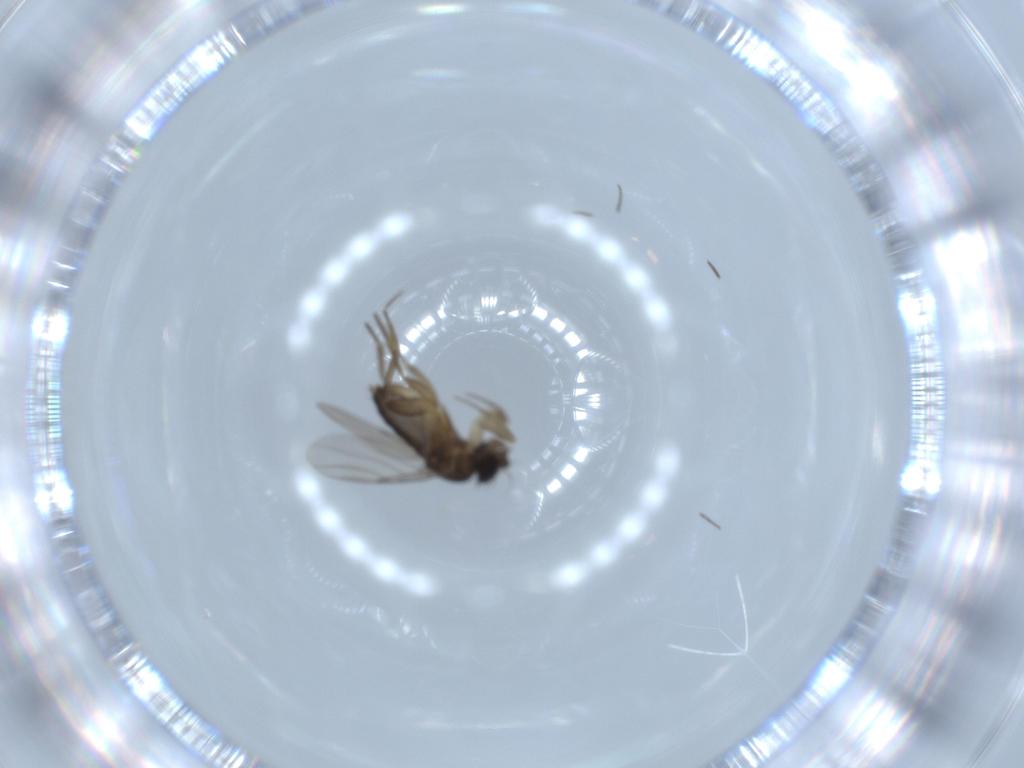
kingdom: Animalia
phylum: Arthropoda
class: Insecta
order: Diptera
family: Phoridae
